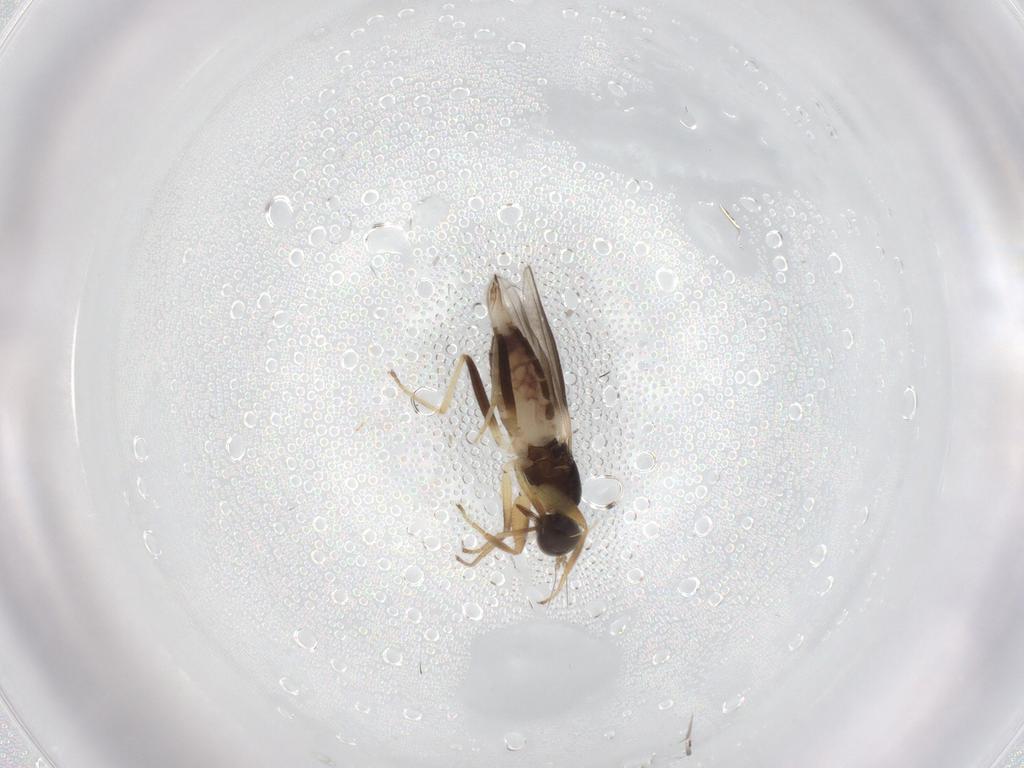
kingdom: Animalia
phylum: Arthropoda
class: Insecta
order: Diptera
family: Hybotidae
